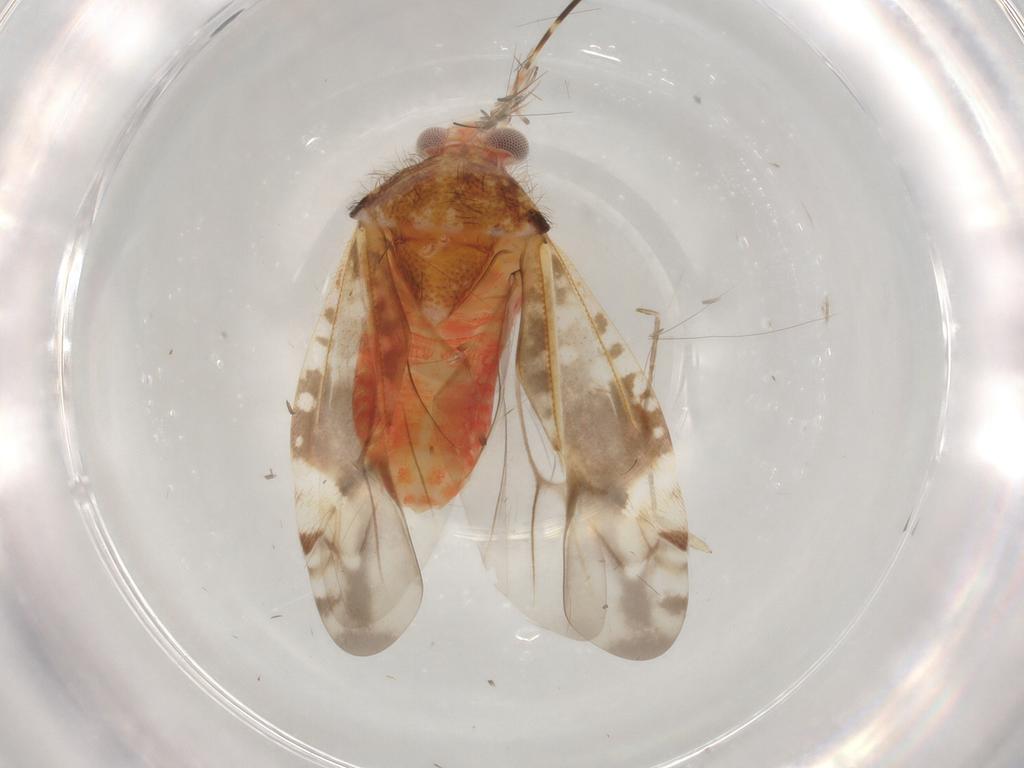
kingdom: Animalia
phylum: Arthropoda
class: Insecta
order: Hemiptera
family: Miridae
